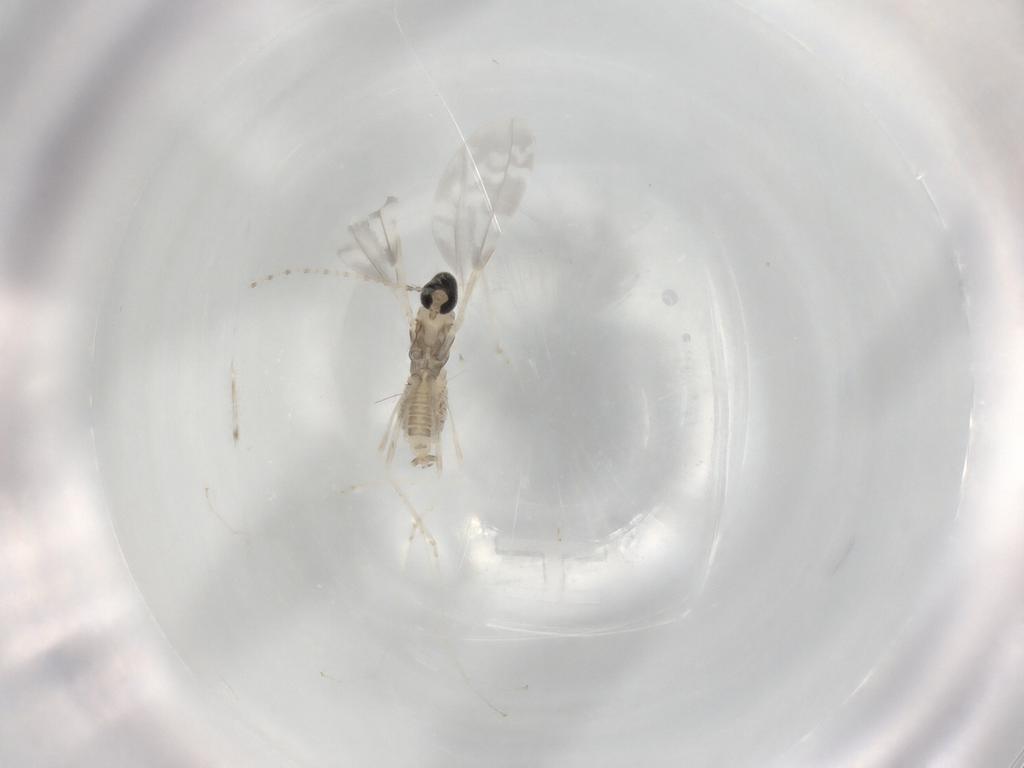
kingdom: Animalia
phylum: Arthropoda
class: Insecta
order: Diptera
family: Cecidomyiidae
